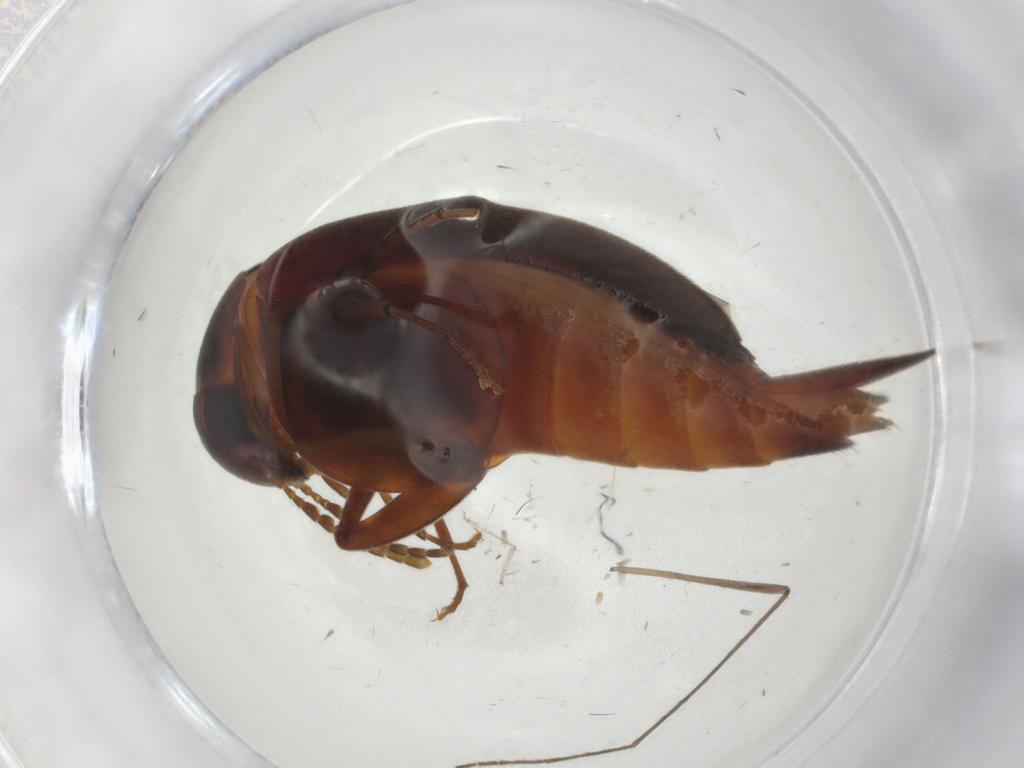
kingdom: Animalia
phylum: Arthropoda
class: Insecta
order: Coleoptera
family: Mordellidae
